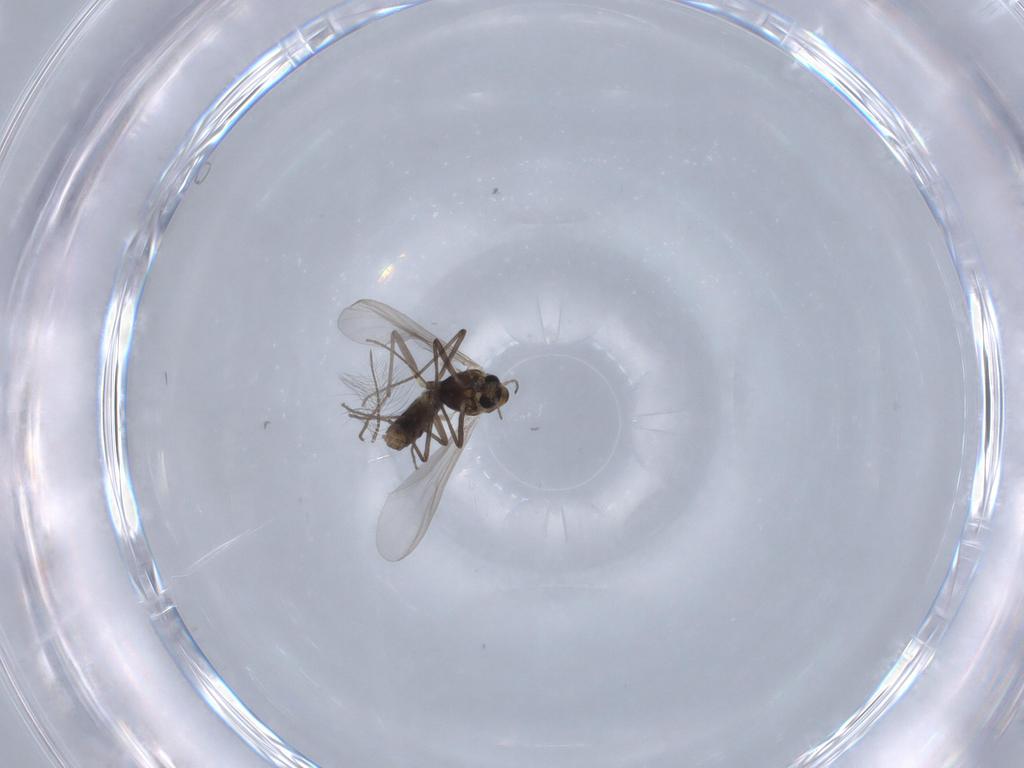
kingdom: Animalia
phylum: Arthropoda
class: Insecta
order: Diptera
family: Chironomidae
